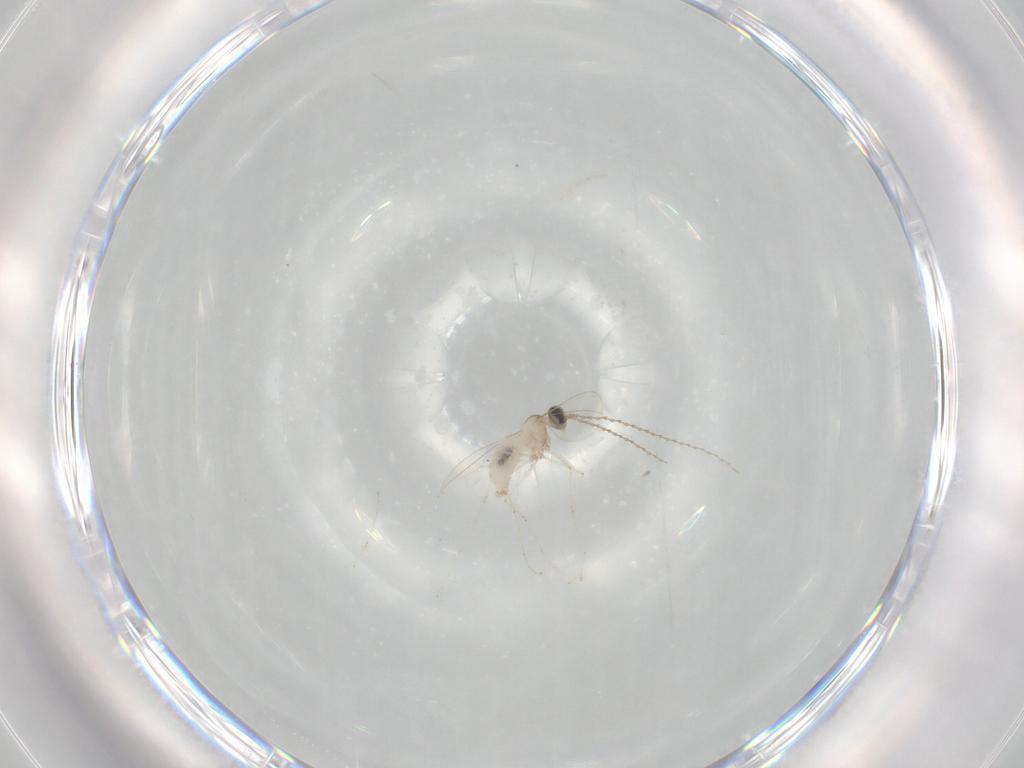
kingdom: Animalia
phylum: Arthropoda
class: Insecta
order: Diptera
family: Cecidomyiidae
